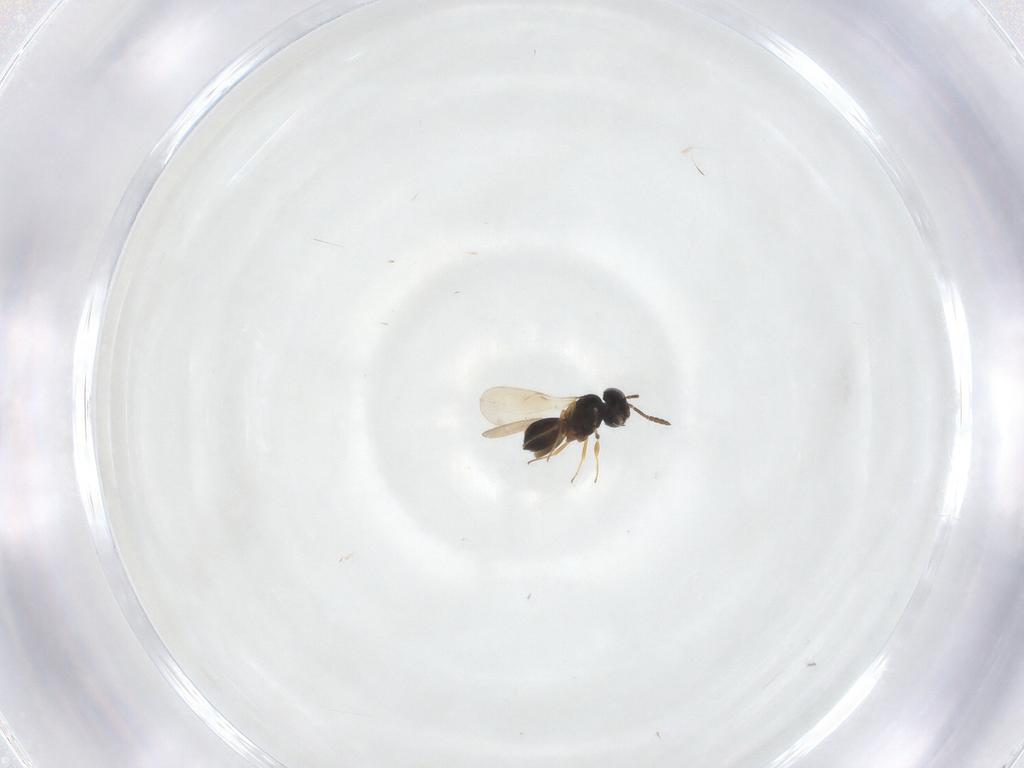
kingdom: Animalia
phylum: Arthropoda
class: Insecta
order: Hymenoptera
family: Scelionidae
